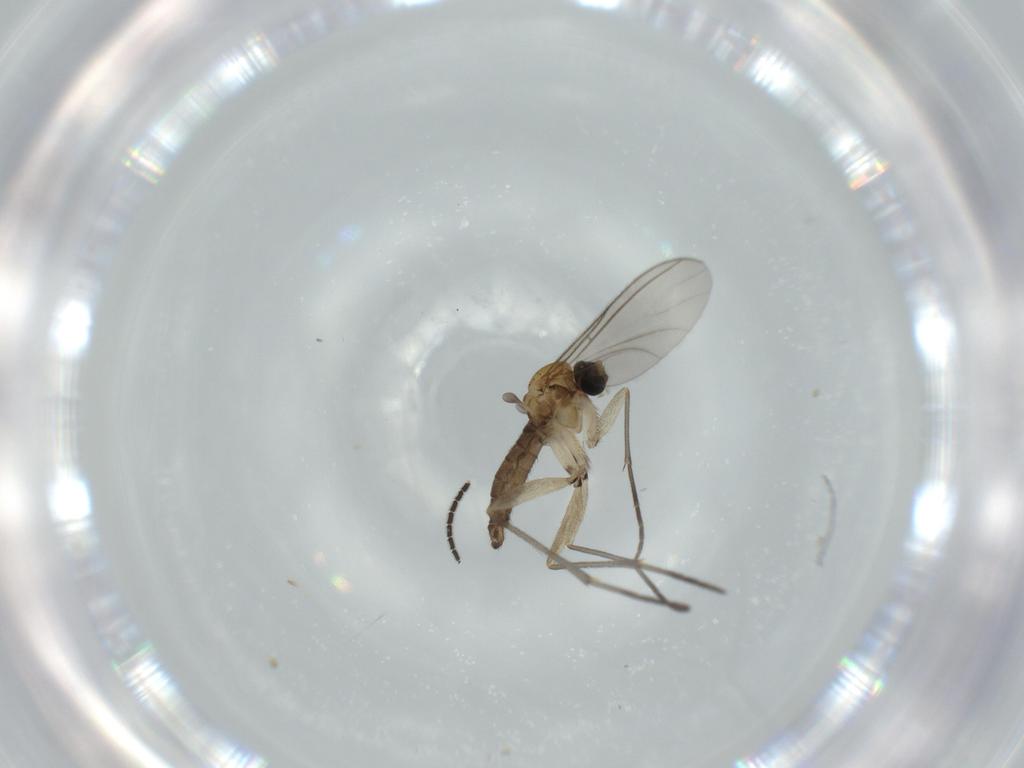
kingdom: Animalia
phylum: Arthropoda
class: Insecta
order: Diptera
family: Sciaridae
